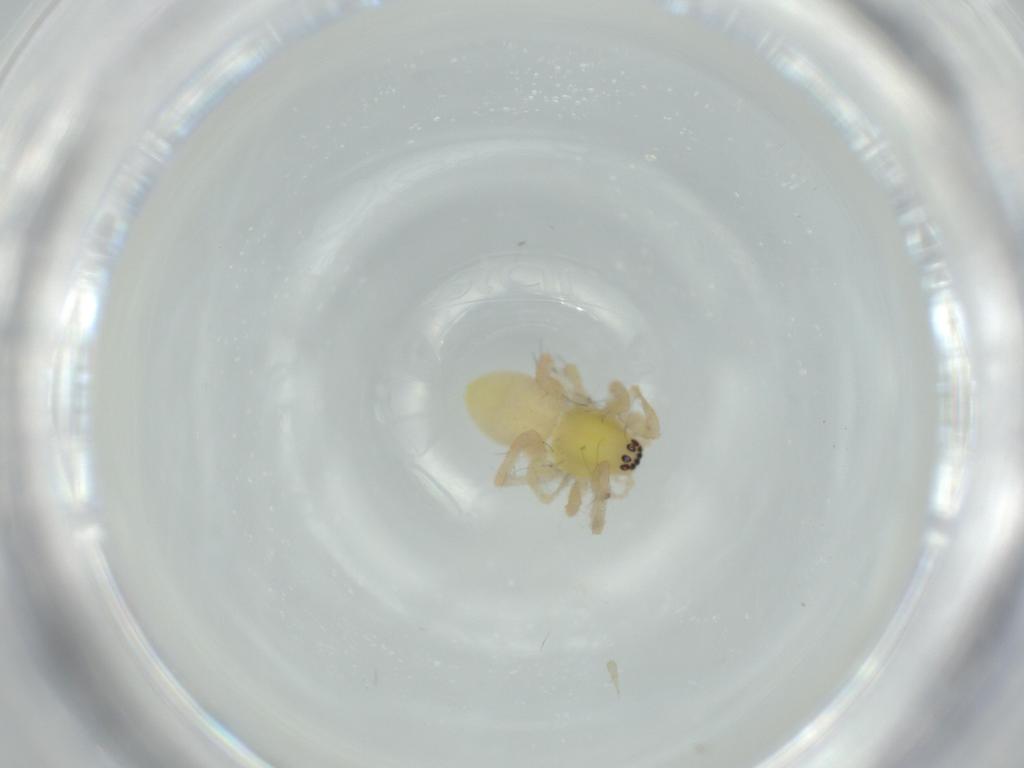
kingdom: Animalia
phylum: Arthropoda
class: Arachnida
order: Araneae
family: Anyphaenidae
